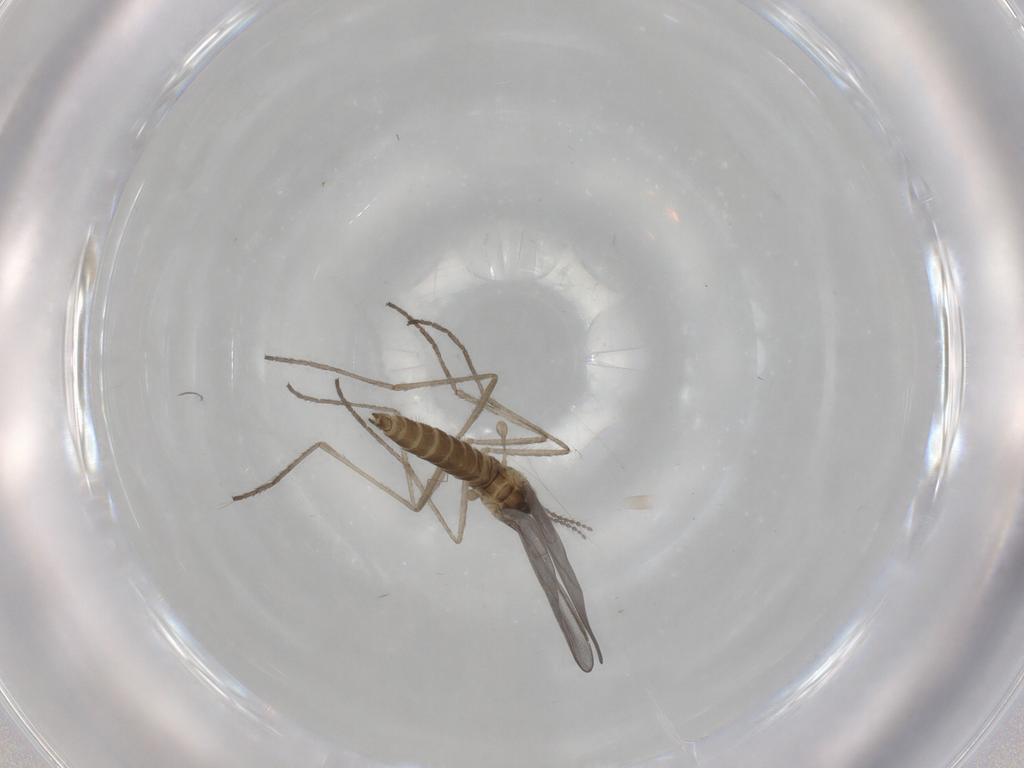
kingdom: Animalia
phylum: Arthropoda
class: Insecta
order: Diptera
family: Cecidomyiidae
